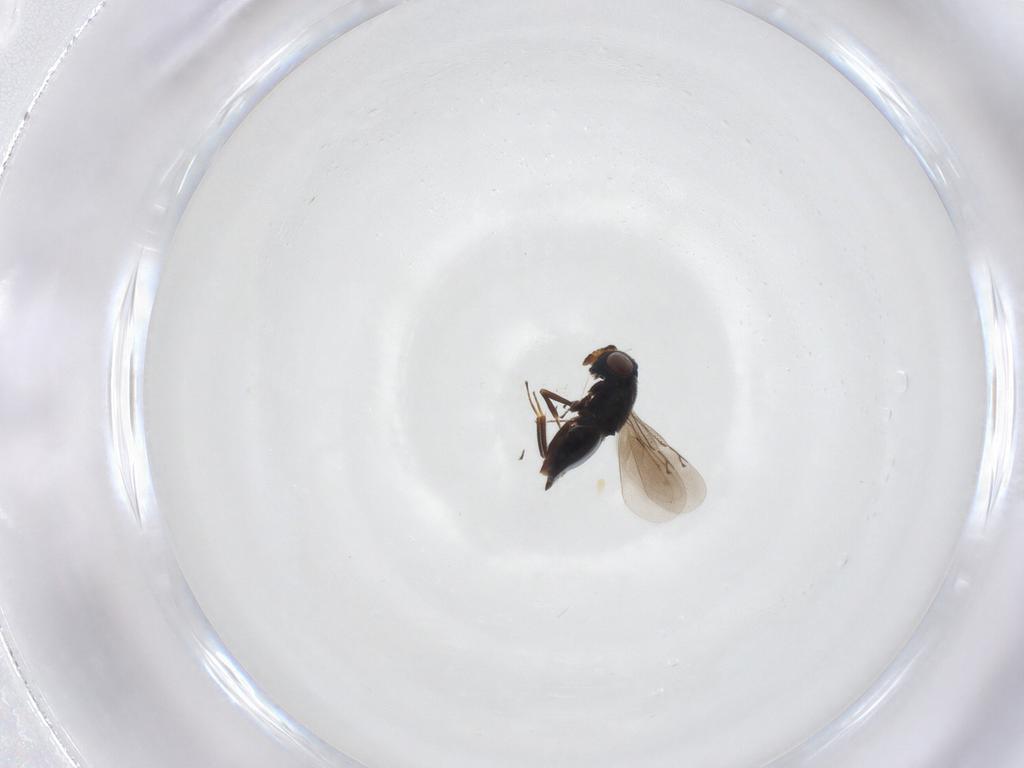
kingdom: Animalia
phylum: Arthropoda
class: Insecta
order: Hymenoptera
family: Eunotidae
